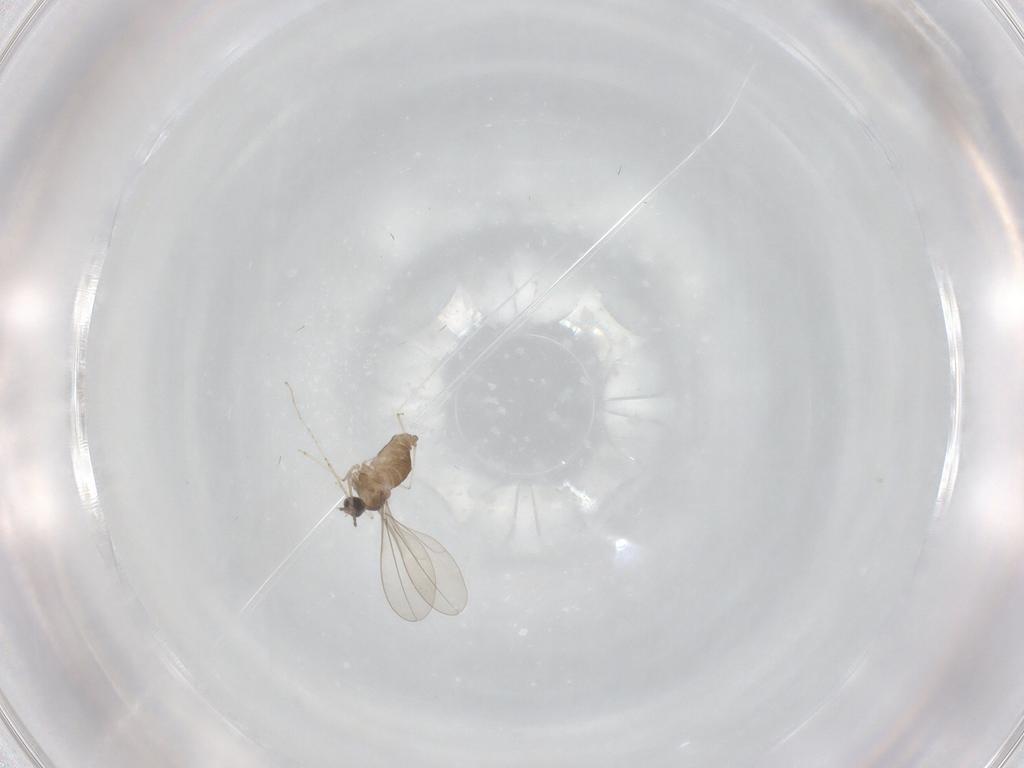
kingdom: Animalia
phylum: Arthropoda
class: Insecta
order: Diptera
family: Cecidomyiidae
